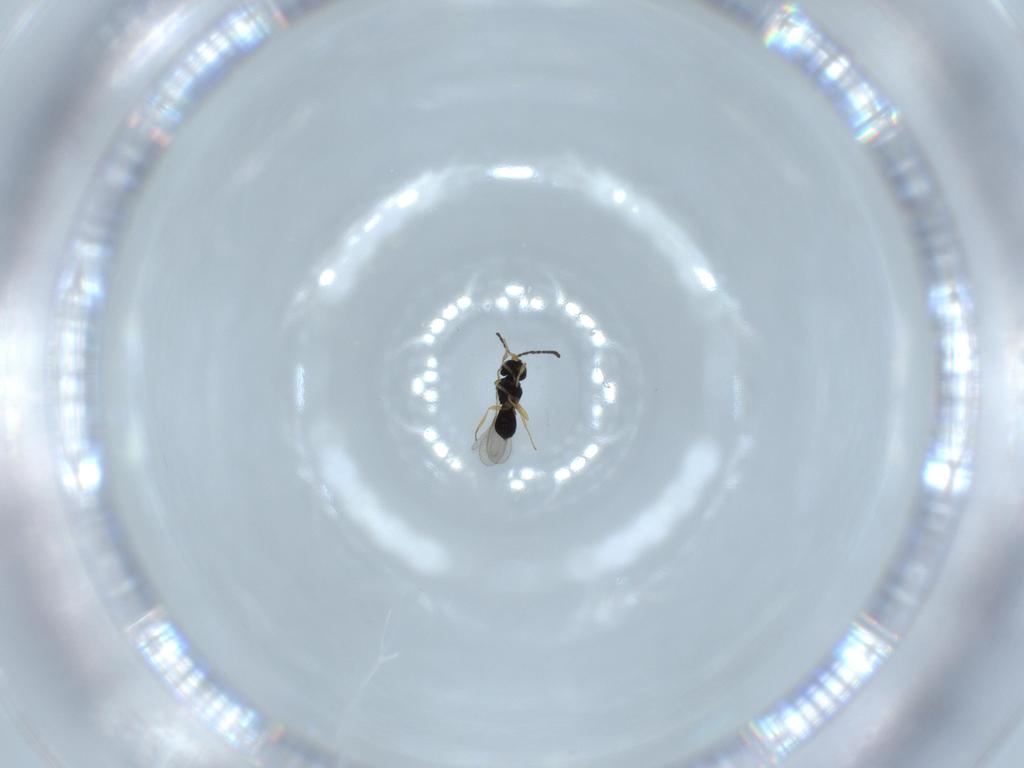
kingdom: Animalia
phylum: Arthropoda
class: Insecta
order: Hymenoptera
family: Scelionidae
